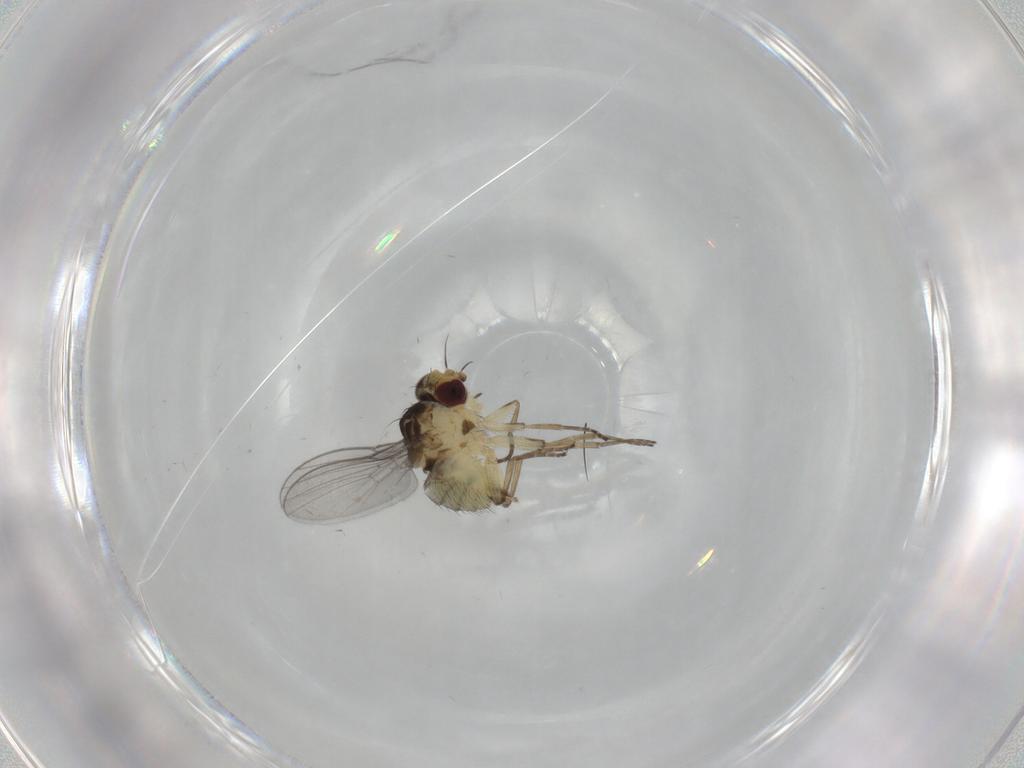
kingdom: Animalia
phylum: Arthropoda
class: Insecta
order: Diptera
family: Agromyzidae
